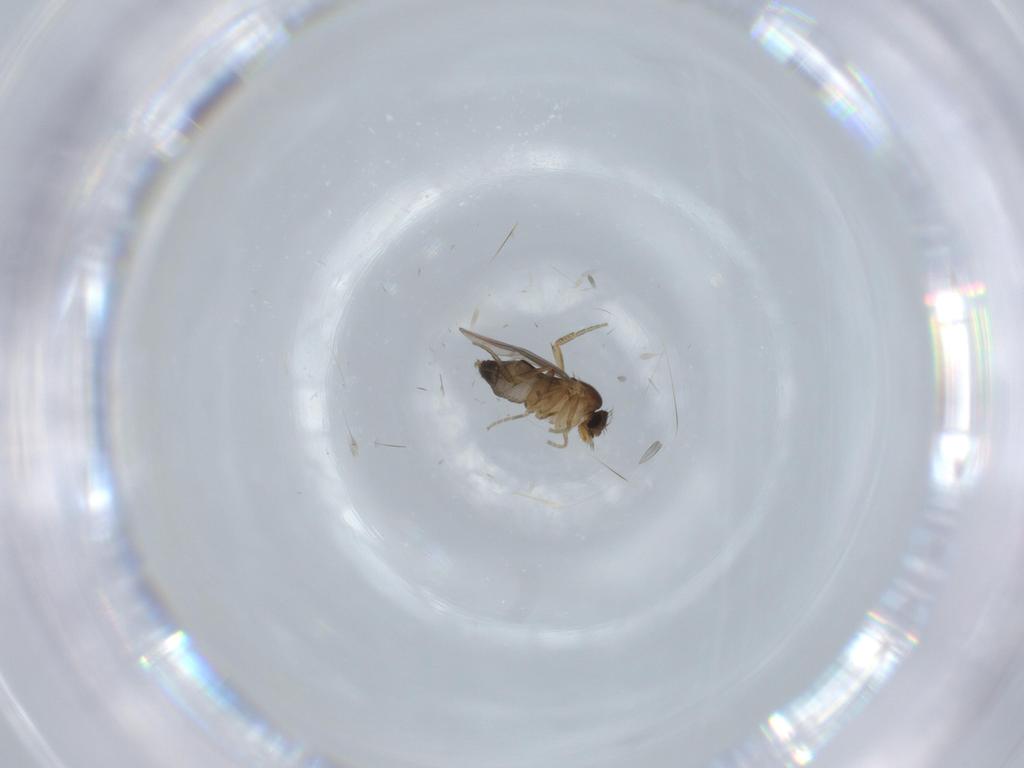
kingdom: Animalia
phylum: Arthropoda
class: Insecta
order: Diptera
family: Phoridae
